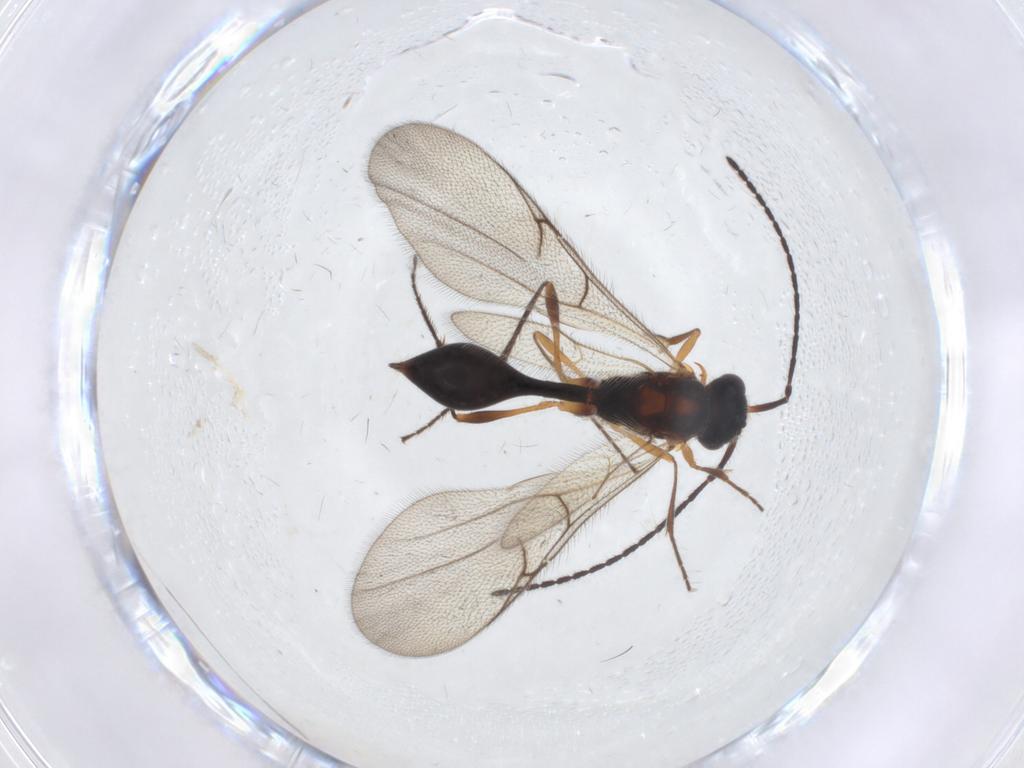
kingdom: Animalia
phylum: Arthropoda
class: Insecta
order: Hymenoptera
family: Diapriidae
